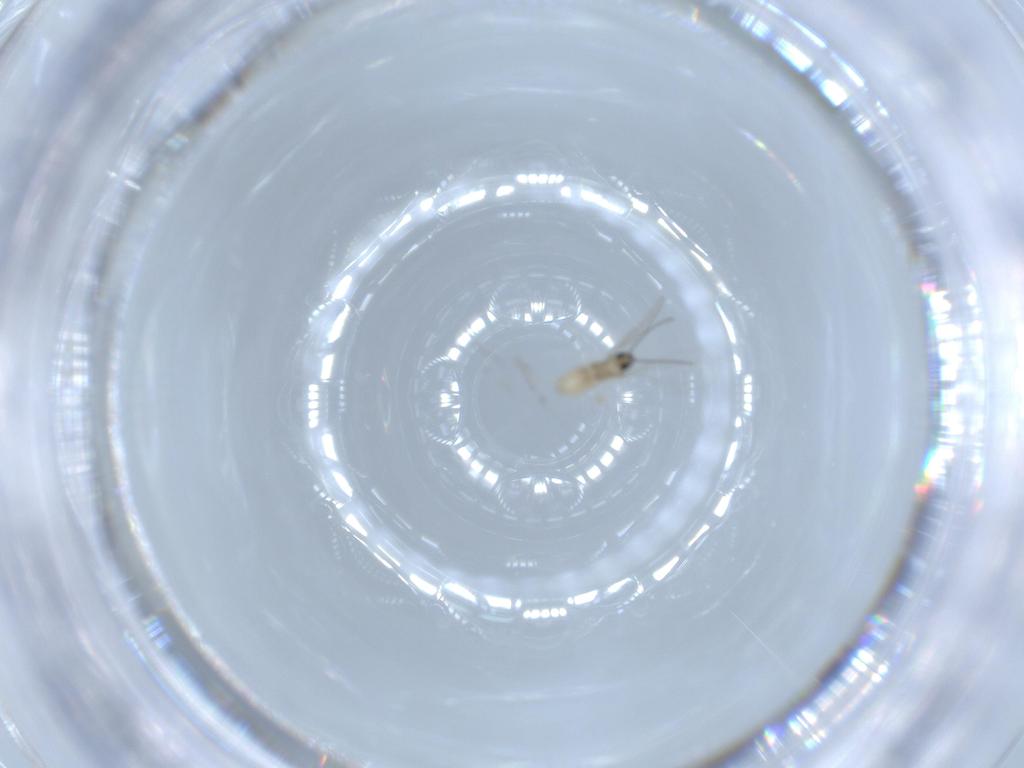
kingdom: Animalia
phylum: Arthropoda
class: Insecta
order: Diptera
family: Cecidomyiidae
